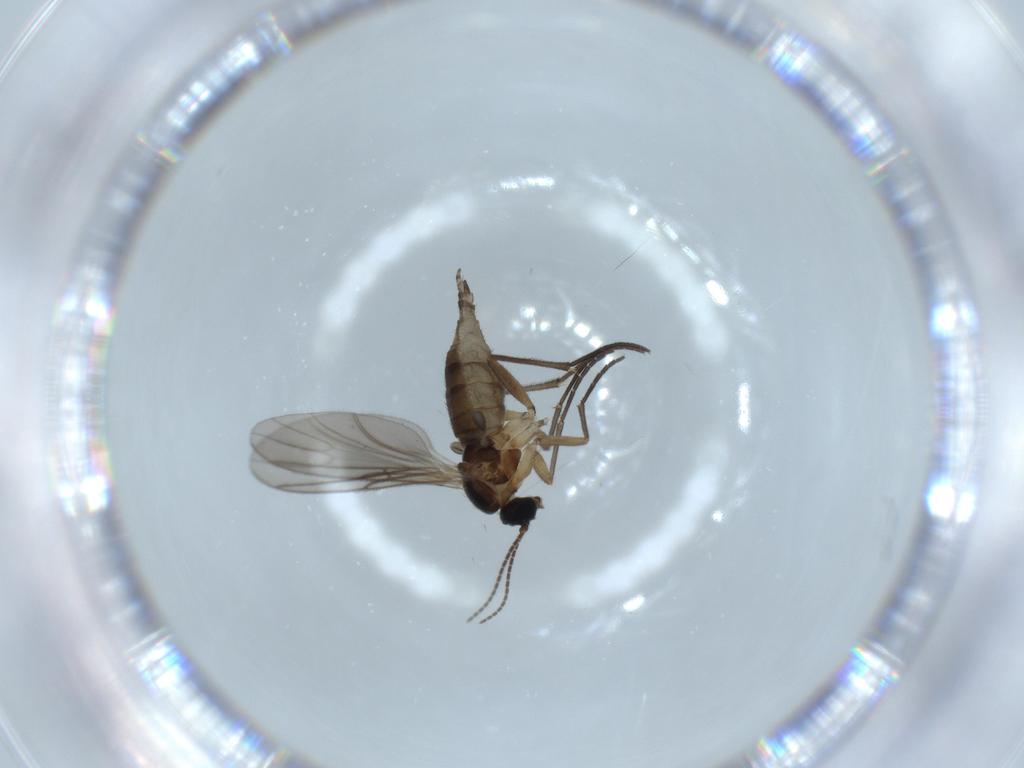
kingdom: Animalia
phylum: Arthropoda
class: Insecta
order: Diptera
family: Sciaridae
